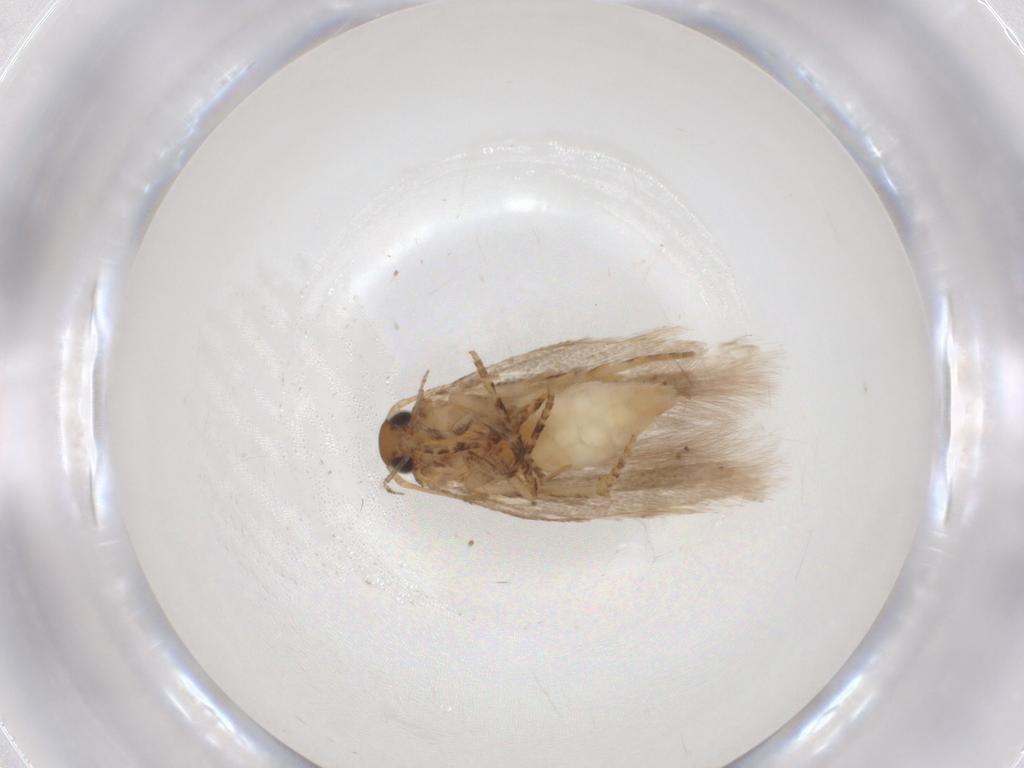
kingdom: Animalia
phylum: Arthropoda
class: Insecta
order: Lepidoptera
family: Gelechiidae
